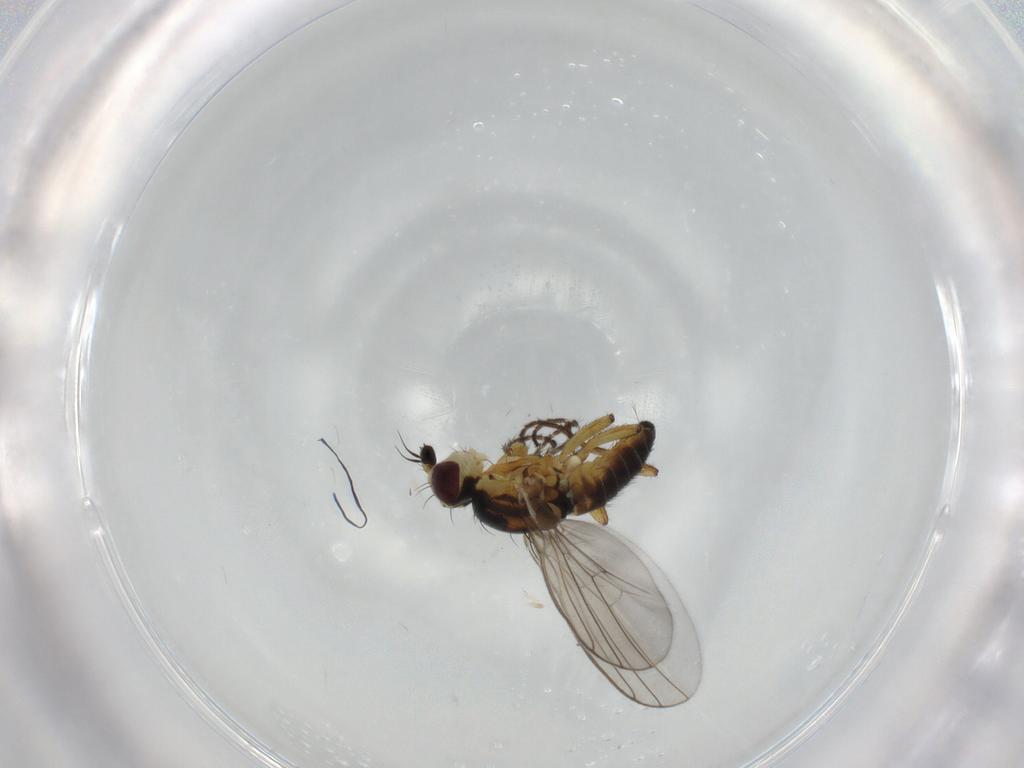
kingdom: Animalia
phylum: Arthropoda
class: Insecta
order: Diptera
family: Agromyzidae
